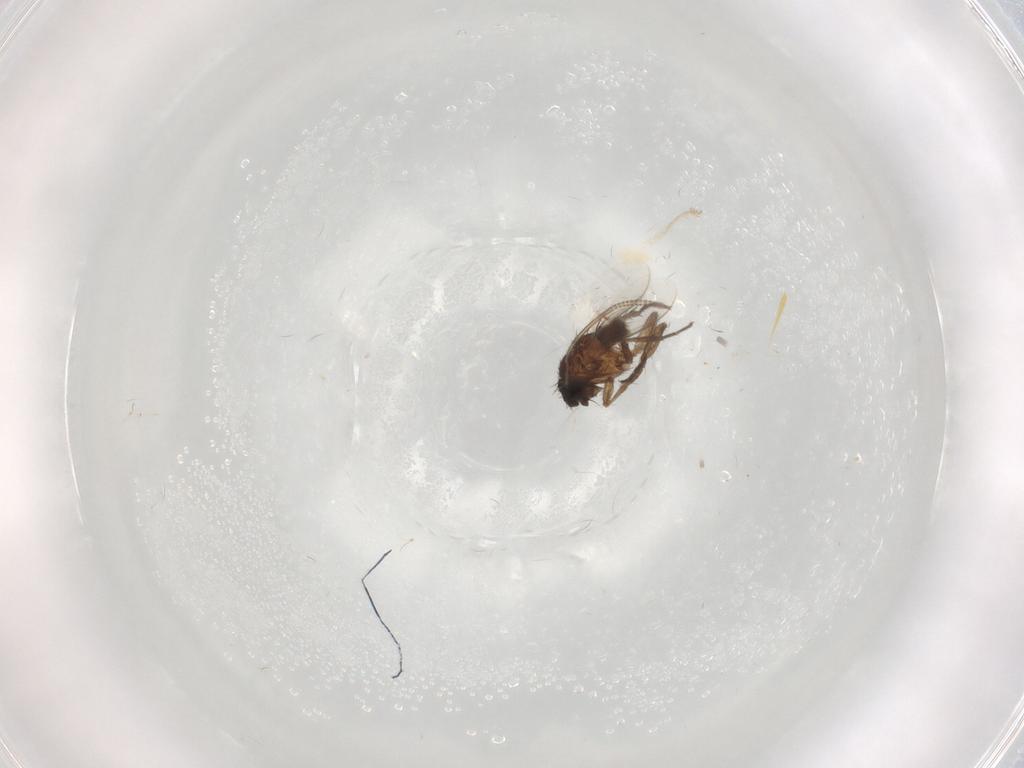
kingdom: Animalia
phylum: Arthropoda
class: Insecta
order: Diptera
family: Sphaeroceridae
